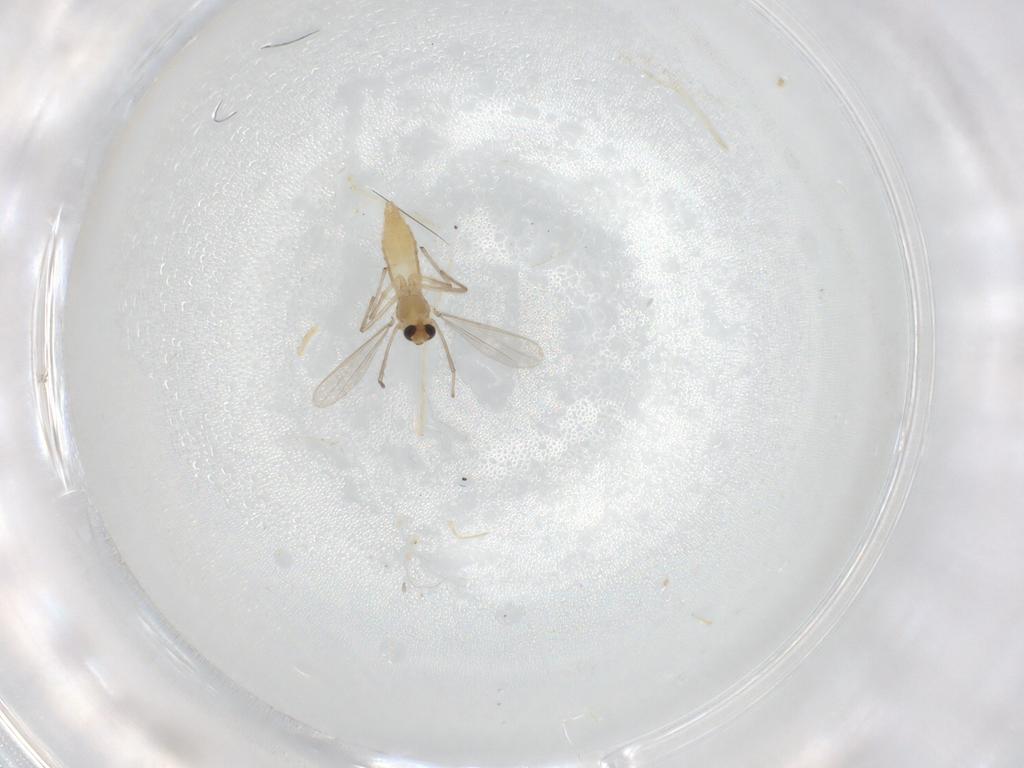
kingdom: Animalia
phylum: Arthropoda
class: Insecta
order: Diptera
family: Chironomidae
